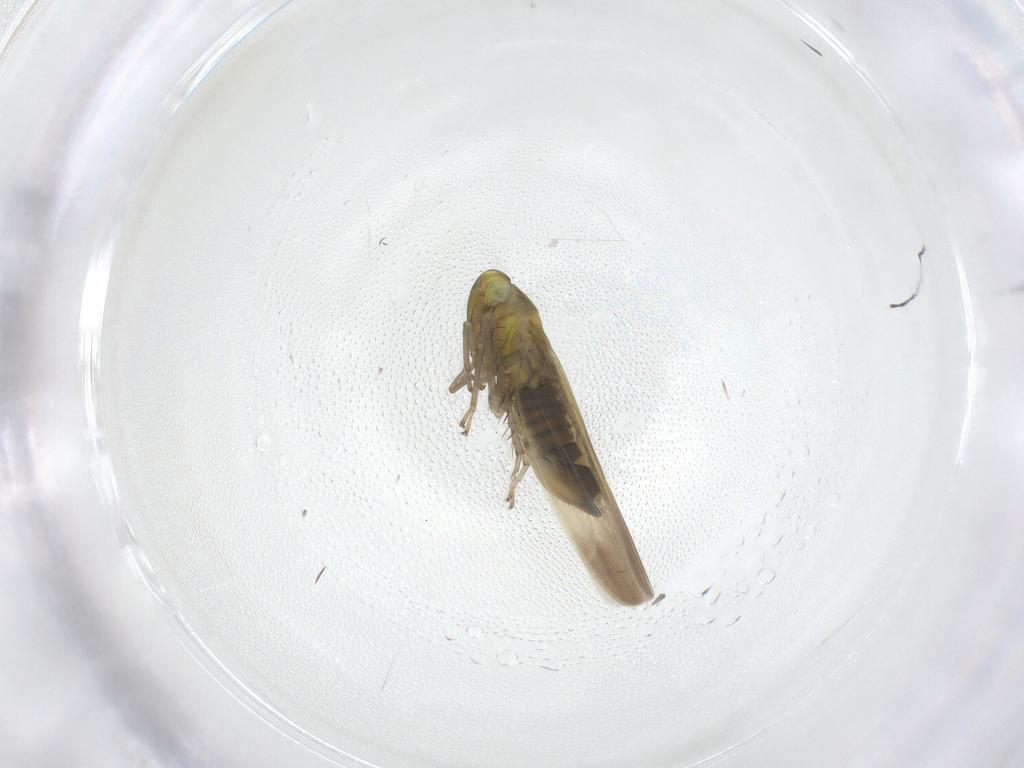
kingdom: Animalia
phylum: Arthropoda
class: Insecta
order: Hemiptera
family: Cicadellidae
